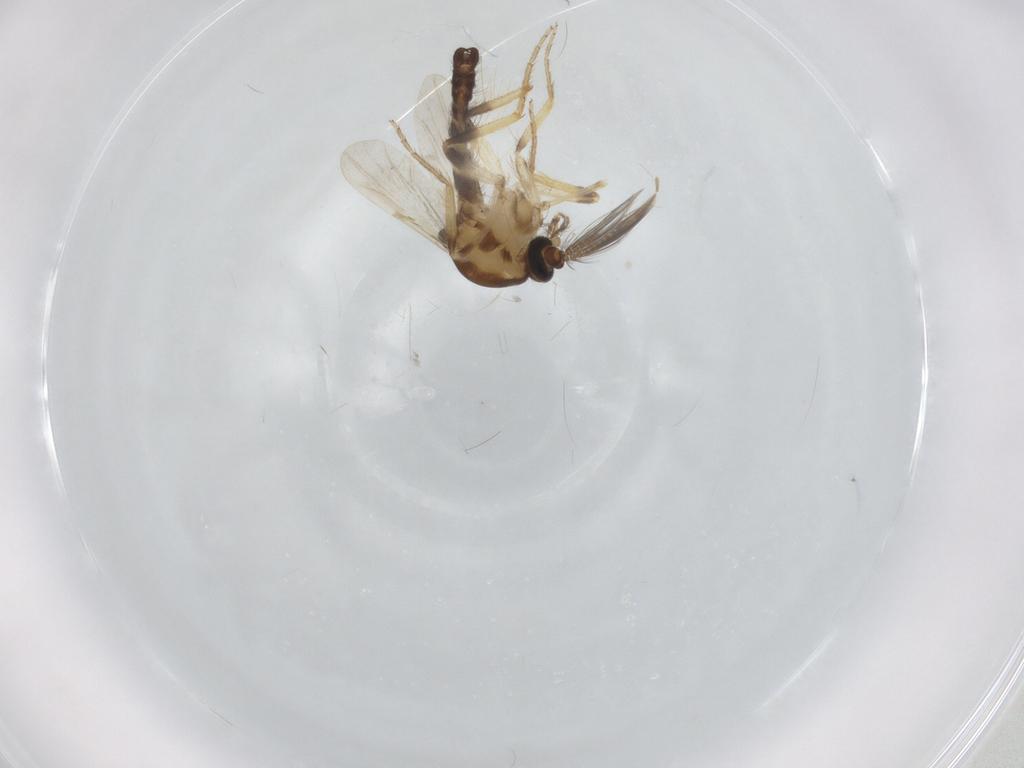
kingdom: Animalia
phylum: Arthropoda
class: Insecta
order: Diptera
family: Ceratopogonidae
